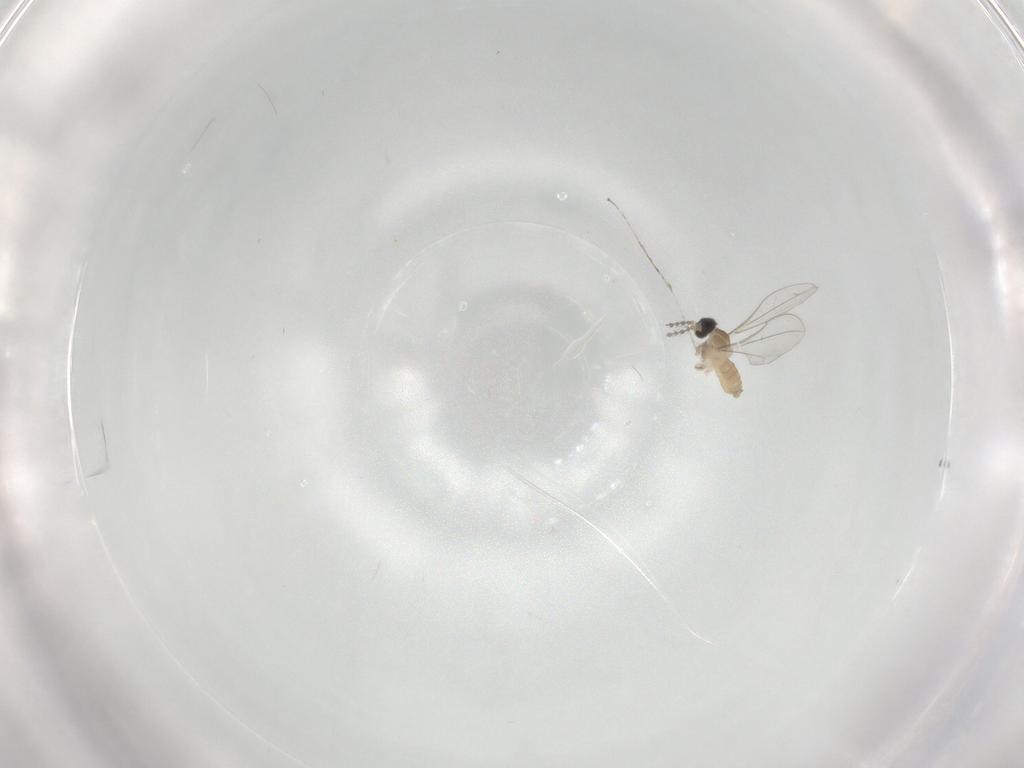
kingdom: Animalia
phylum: Arthropoda
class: Insecta
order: Diptera
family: Cecidomyiidae
